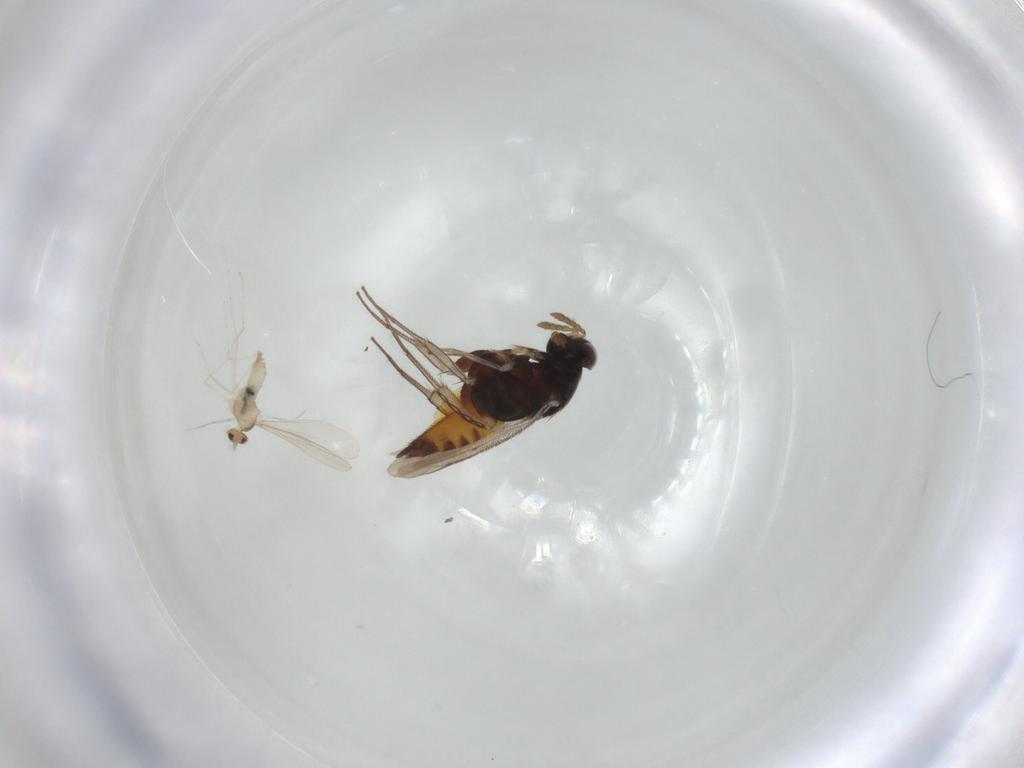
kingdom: Animalia
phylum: Arthropoda
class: Insecta
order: Diptera
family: Cecidomyiidae
